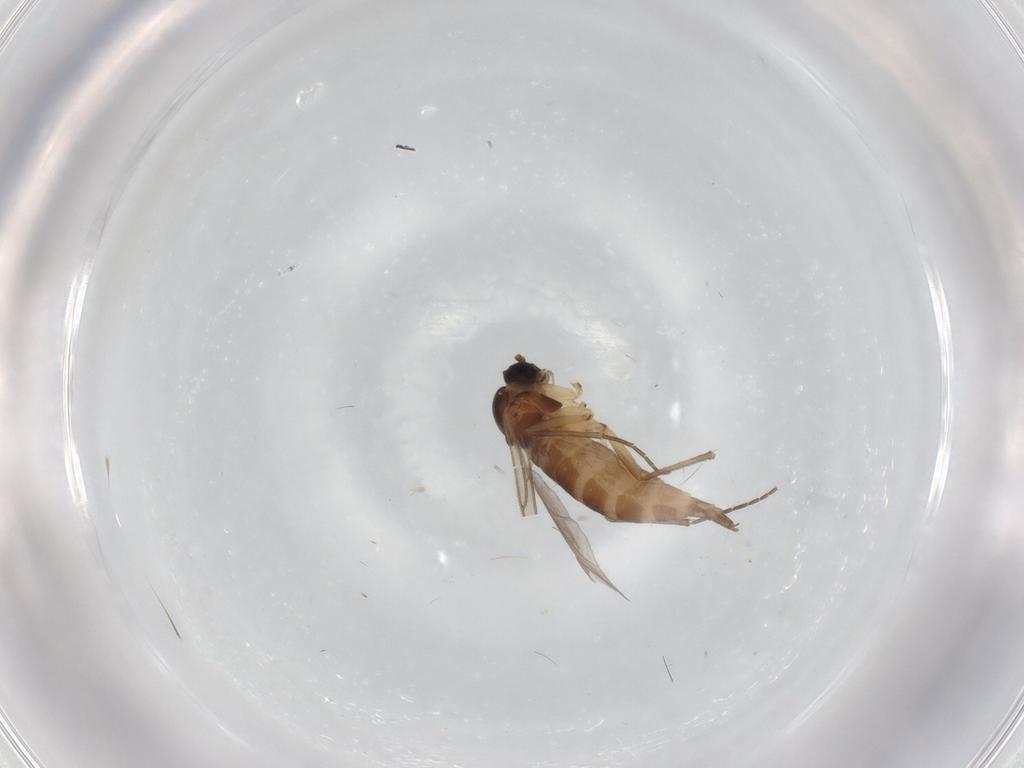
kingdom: Animalia
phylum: Arthropoda
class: Insecta
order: Diptera
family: Sciaridae
